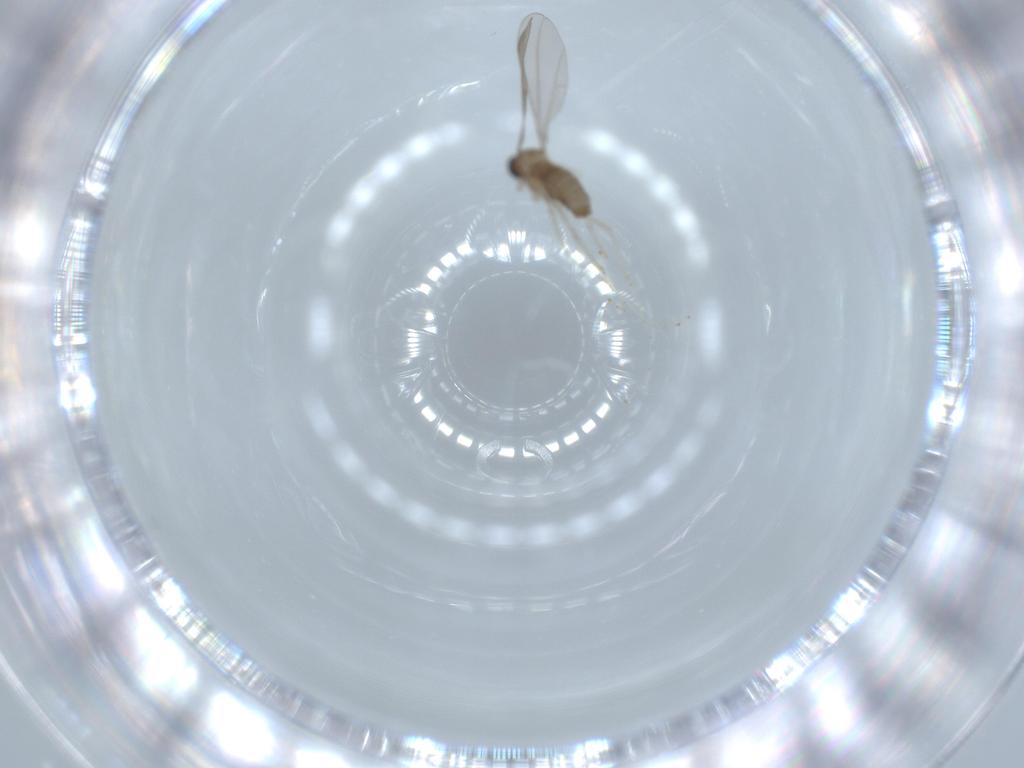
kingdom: Animalia
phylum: Arthropoda
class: Insecta
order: Diptera
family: Cecidomyiidae
